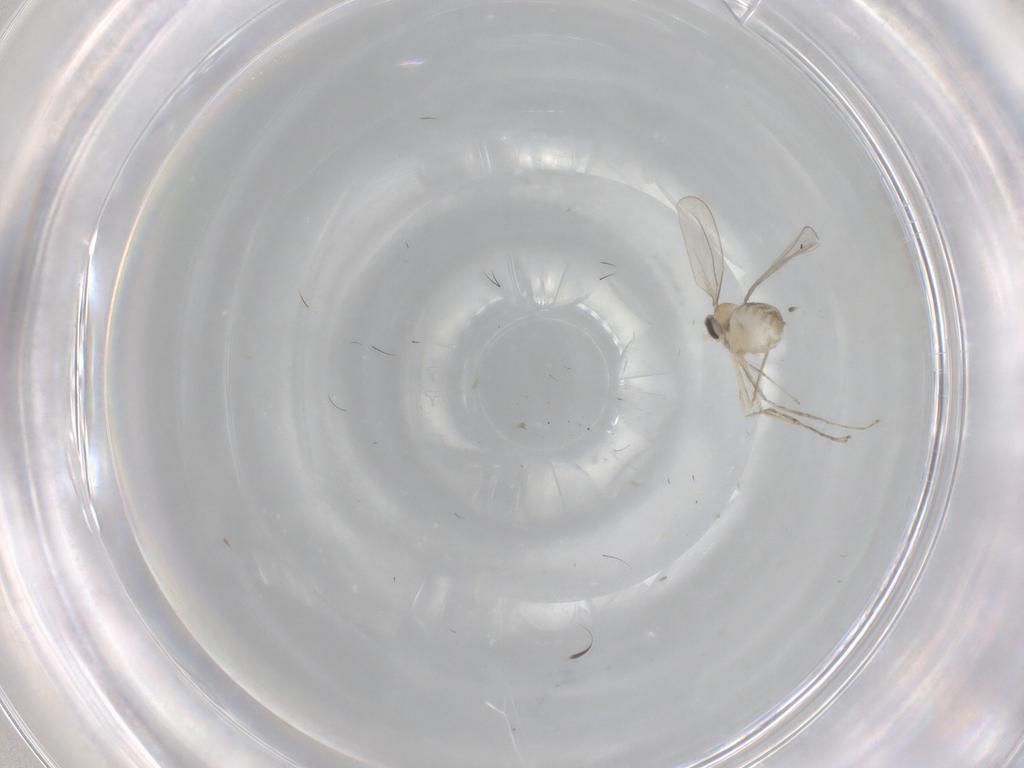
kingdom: Animalia
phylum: Arthropoda
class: Insecta
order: Diptera
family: Cecidomyiidae
